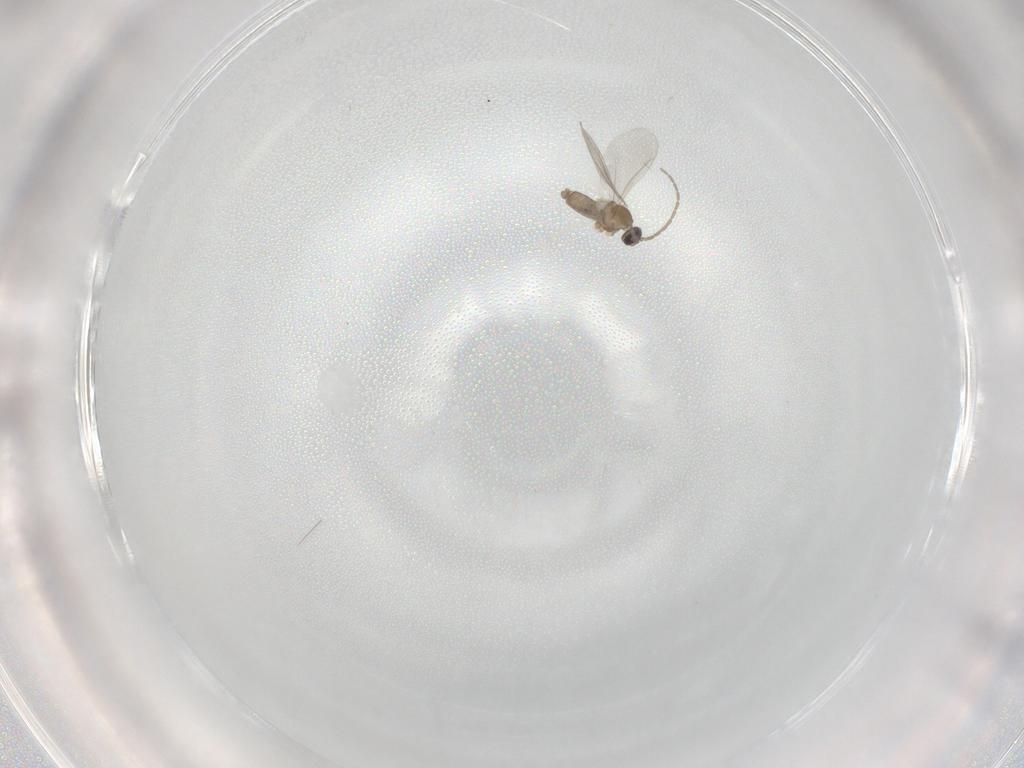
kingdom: Animalia
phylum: Arthropoda
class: Insecta
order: Diptera
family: Cecidomyiidae
